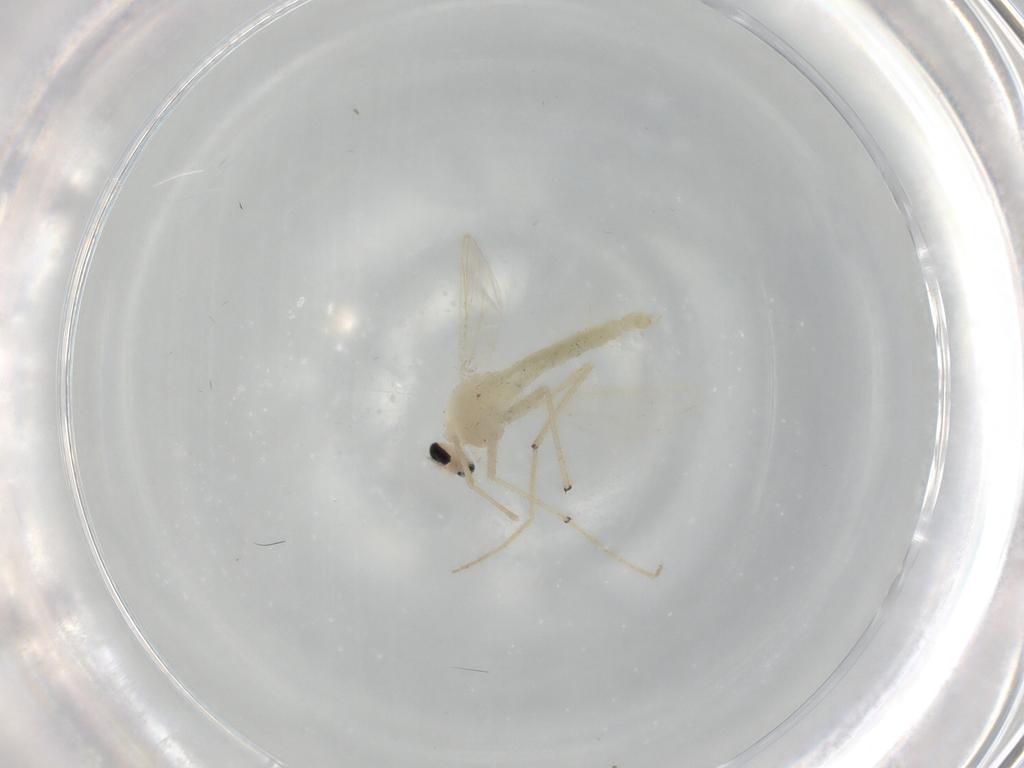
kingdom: Animalia
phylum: Arthropoda
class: Insecta
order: Diptera
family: Chironomidae
